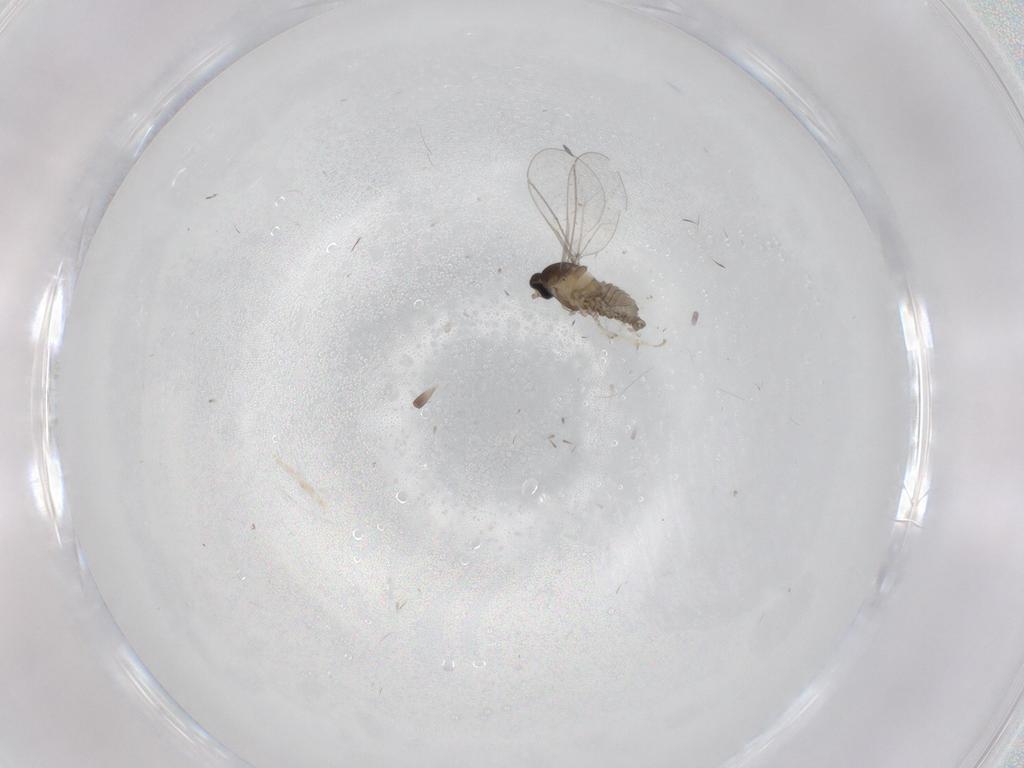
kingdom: Animalia
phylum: Arthropoda
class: Insecta
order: Diptera
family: Cecidomyiidae
